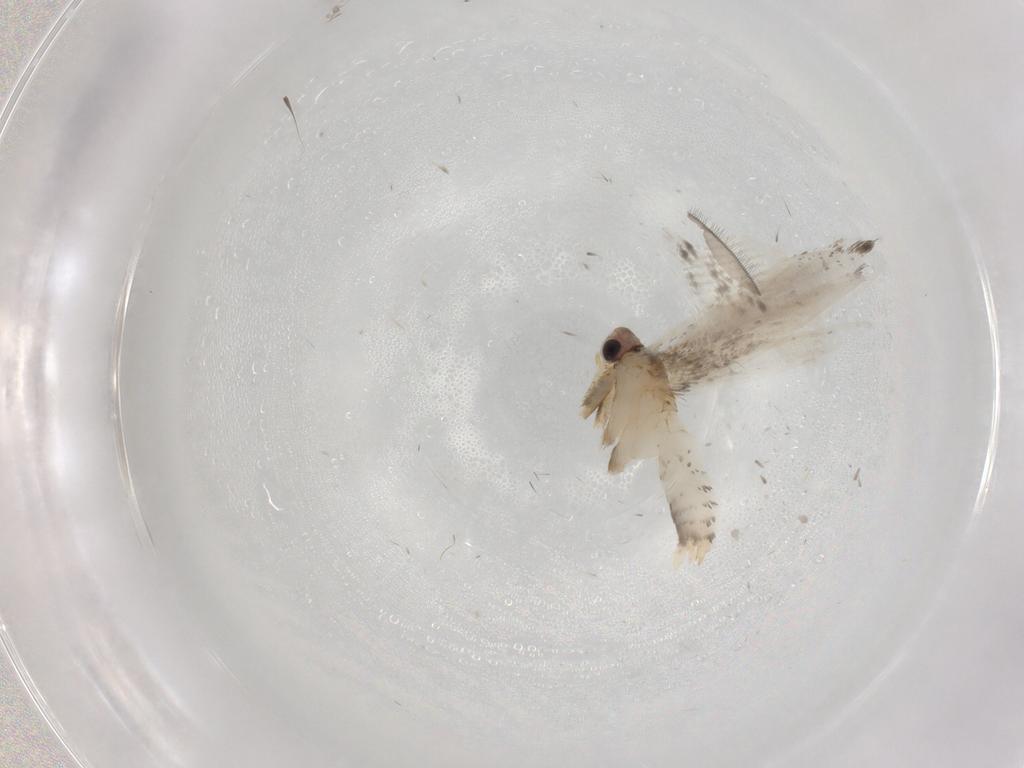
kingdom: Animalia
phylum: Arthropoda
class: Insecta
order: Lepidoptera
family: Tineidae
